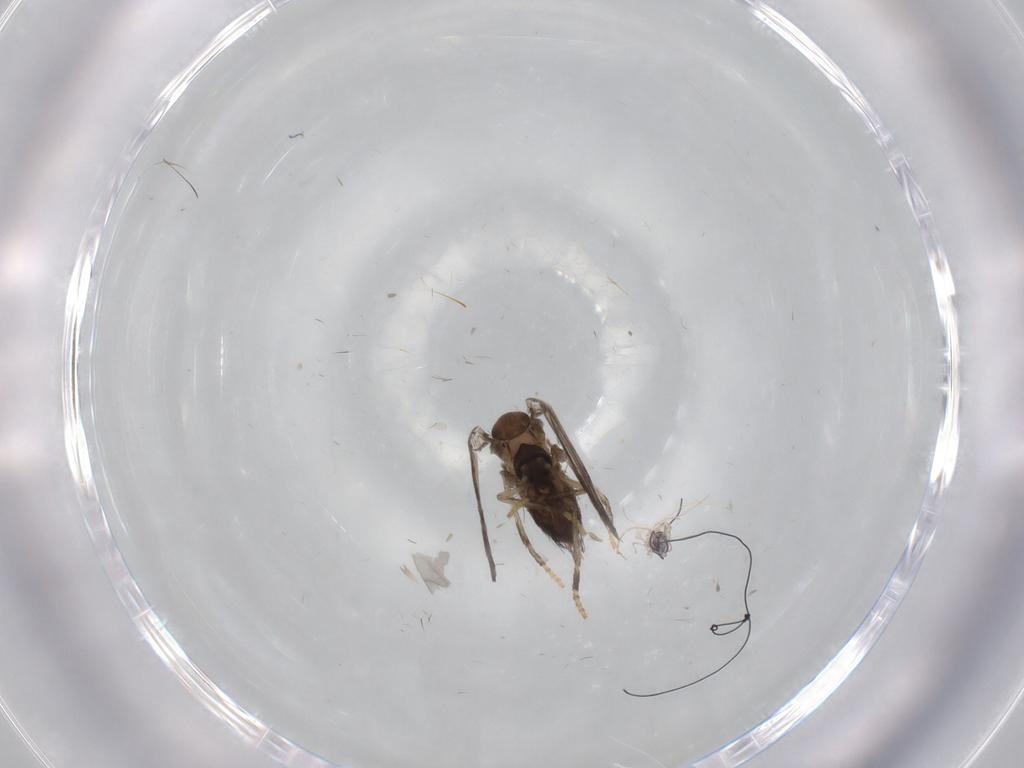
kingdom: Animalia
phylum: Arthropoda
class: Insecta
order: Diptera
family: Psychodidae
